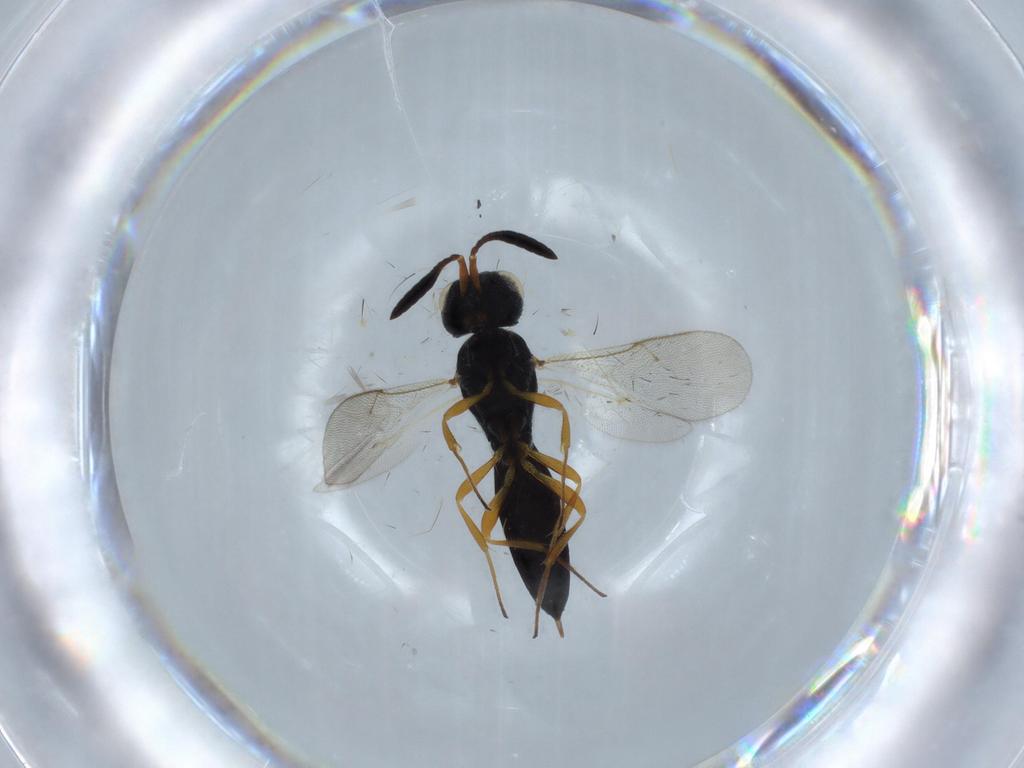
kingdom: Animalia
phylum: Arthropoda
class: Insecta
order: Hymenoptera
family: Scelionidae
